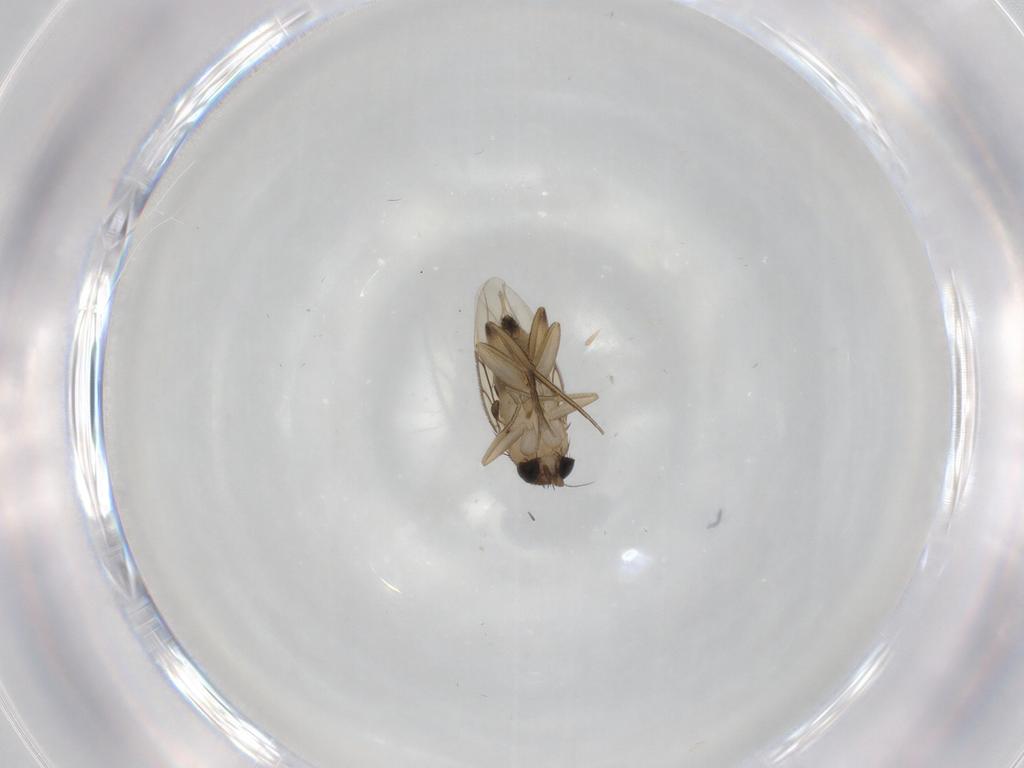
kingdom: Animalia
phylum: Arthropoda
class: Insecta
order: Diptera
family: Phoridae
